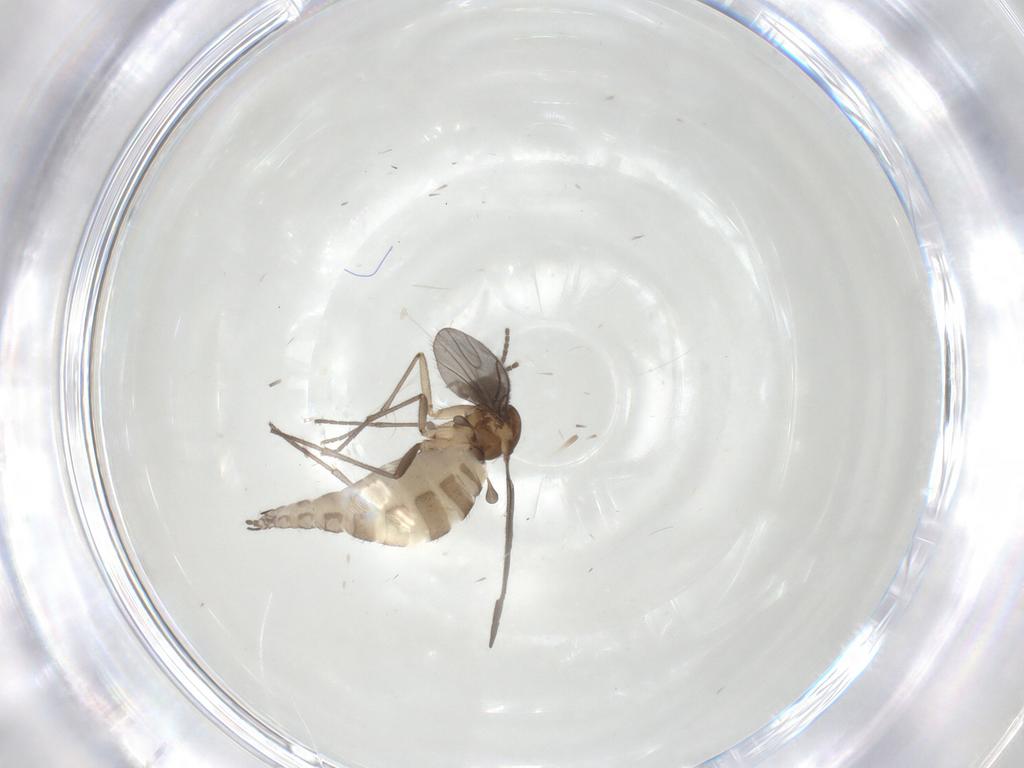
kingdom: Animalia
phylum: Arthropoda
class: Insecta
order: Diptera
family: Sciaridae
